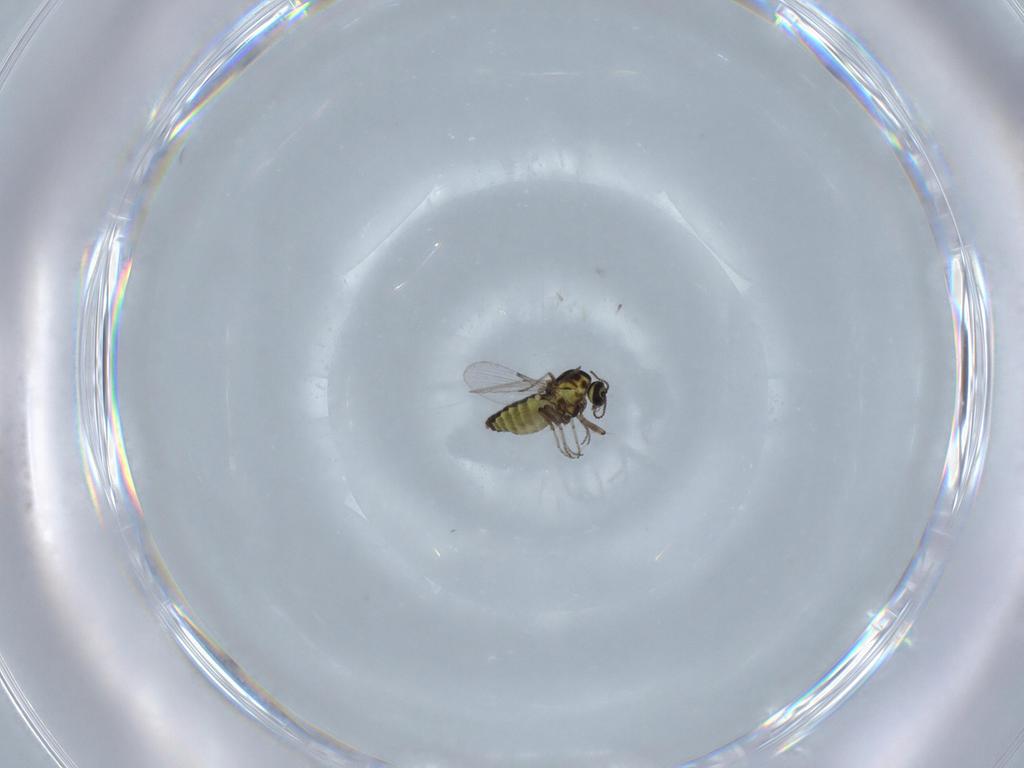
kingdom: Animalia
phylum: Arthropoda
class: Insecta
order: Diptera
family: Ceratopogonidae
